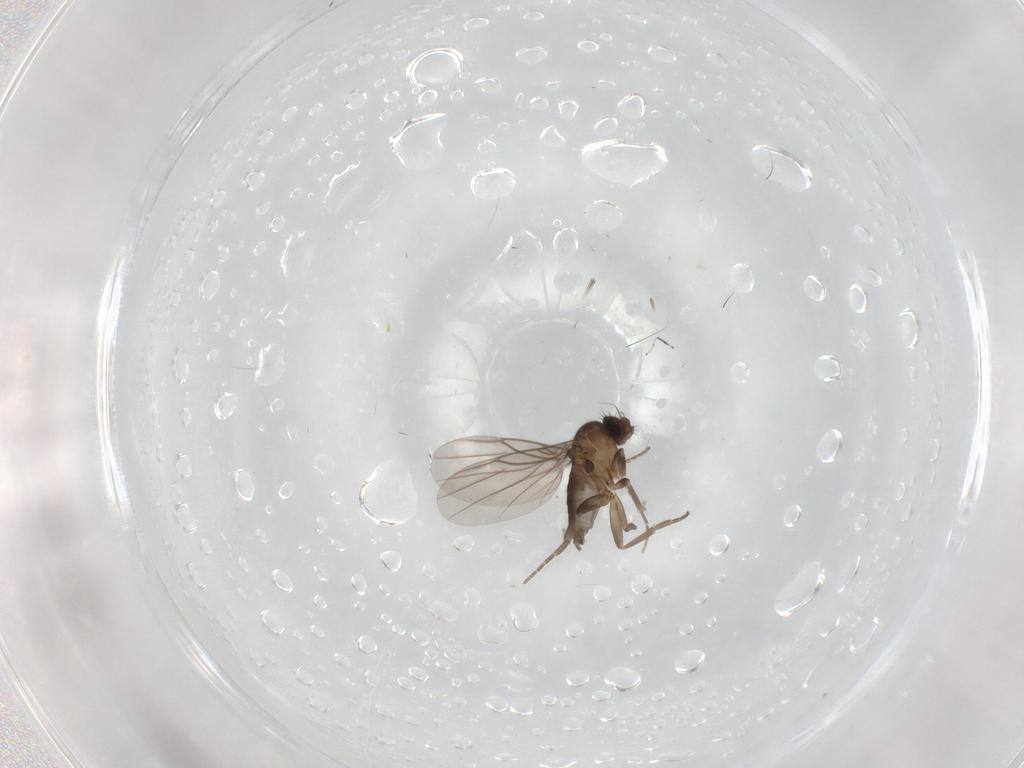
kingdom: Animalia
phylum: Arthropoda
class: Insecta
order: Diptera
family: Phoridae
